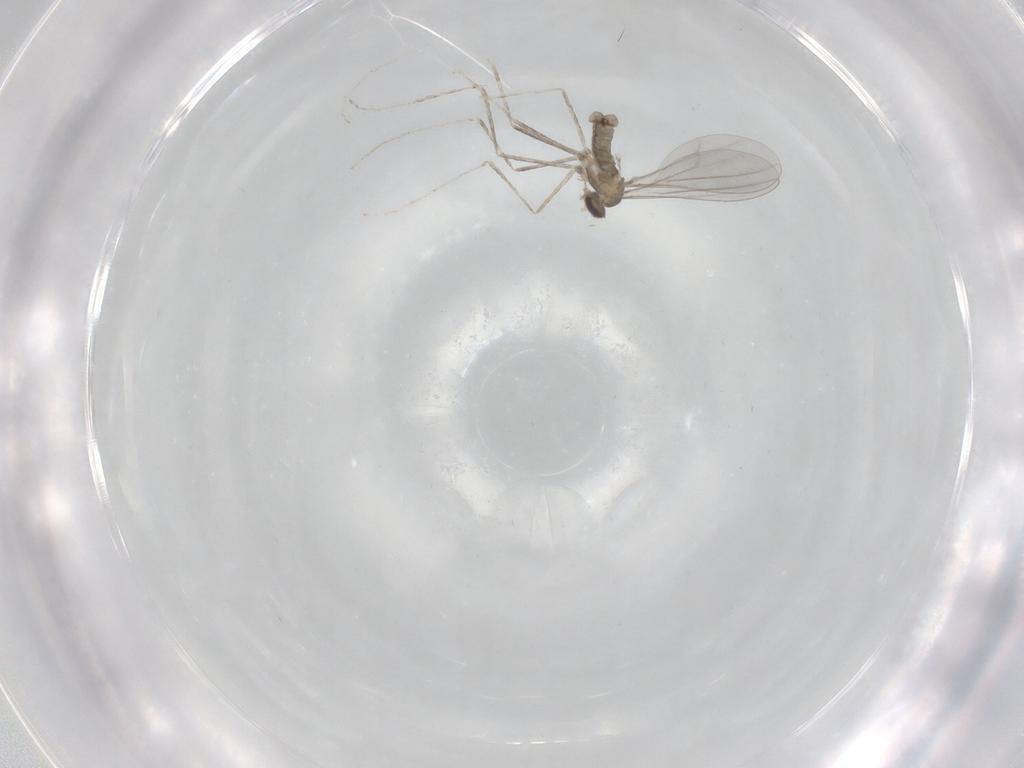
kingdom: Animalia
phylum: Arthropoda
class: Insecta
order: Diptera
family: Cecidomyiidae
